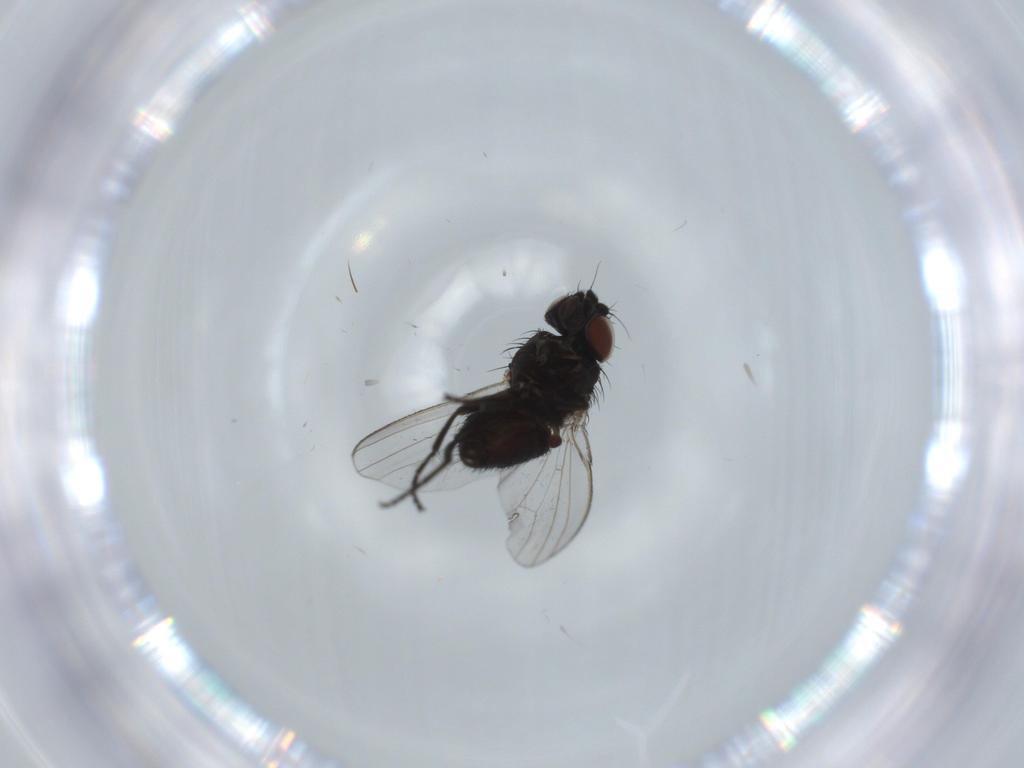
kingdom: Animalia
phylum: Arthropoda
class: Insecta
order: Diptera
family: Milichiidae
